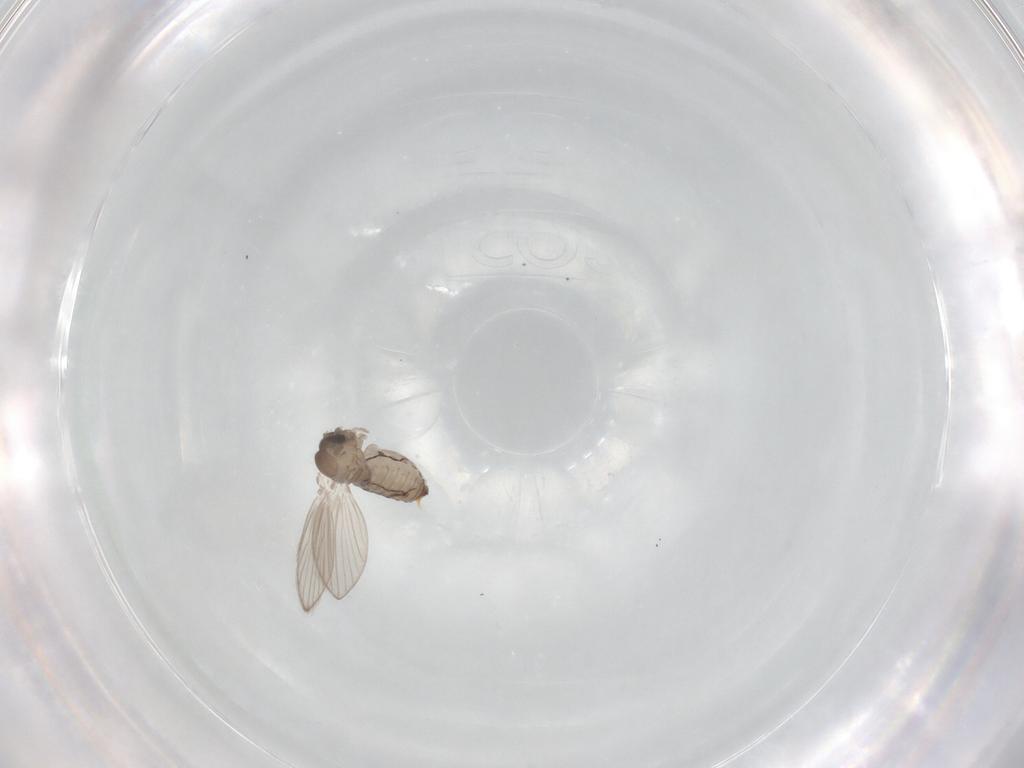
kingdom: Animalia
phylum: Arthropoda
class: Insecta
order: Diptera
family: Psychodidae
